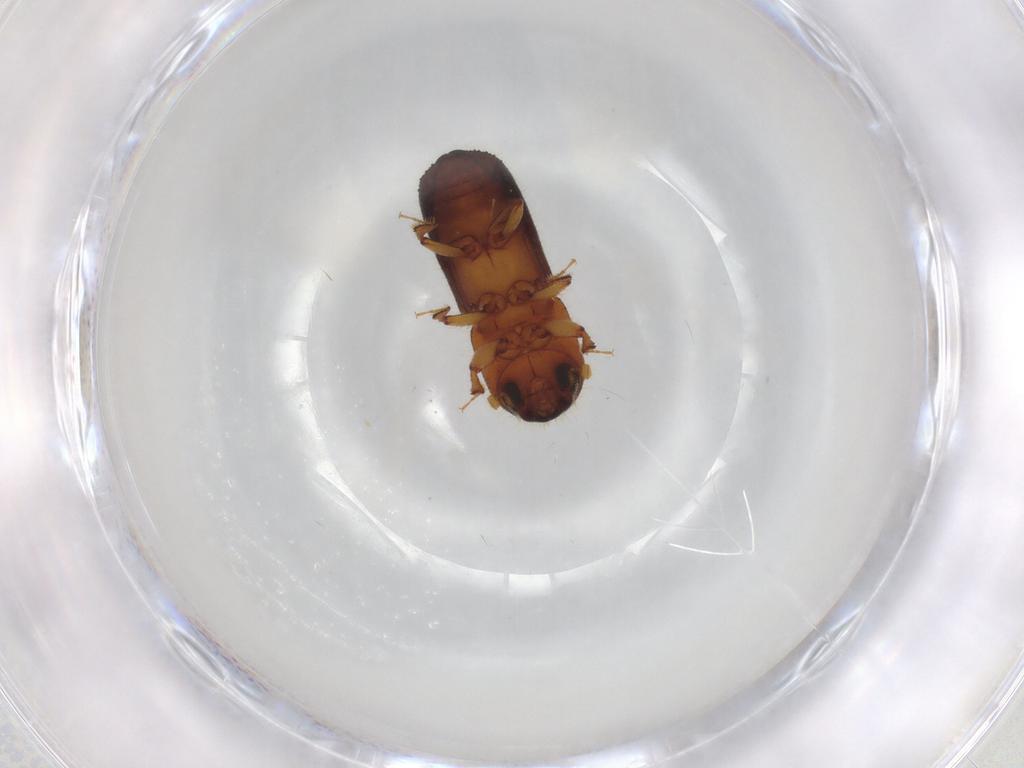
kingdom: Animalia
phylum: Arthropoda
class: Insecta
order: Coleoptera
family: Curculionidae
